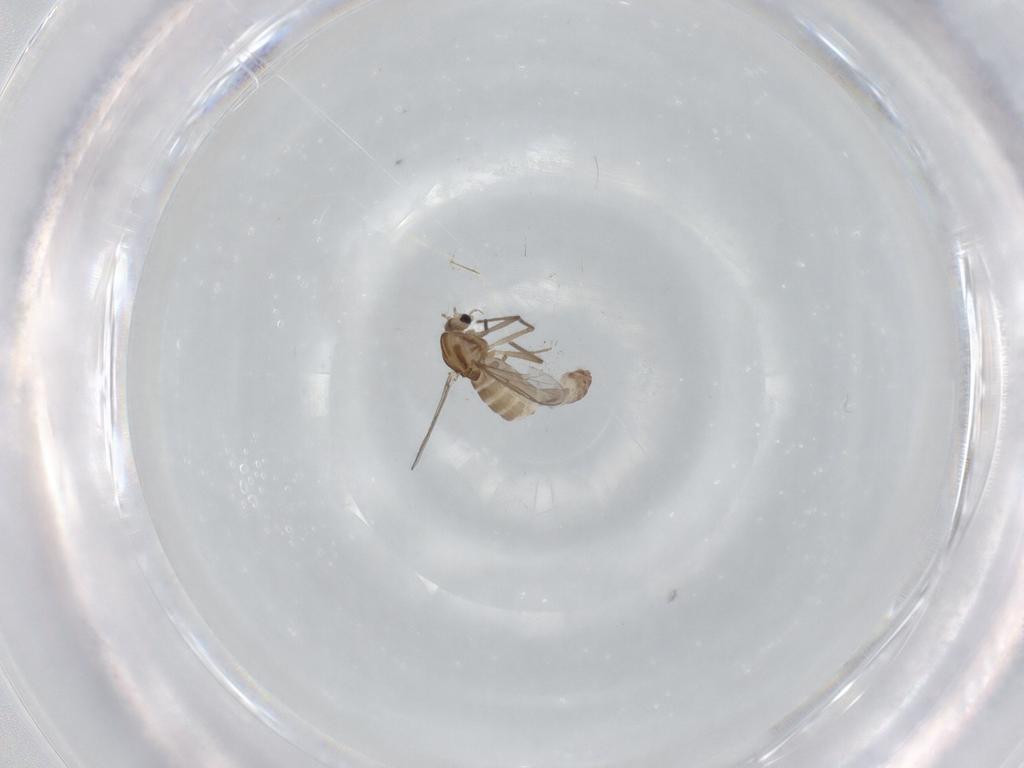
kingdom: Animalia
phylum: Arthropoda
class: Insecta
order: Diptera
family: Chironomidae
